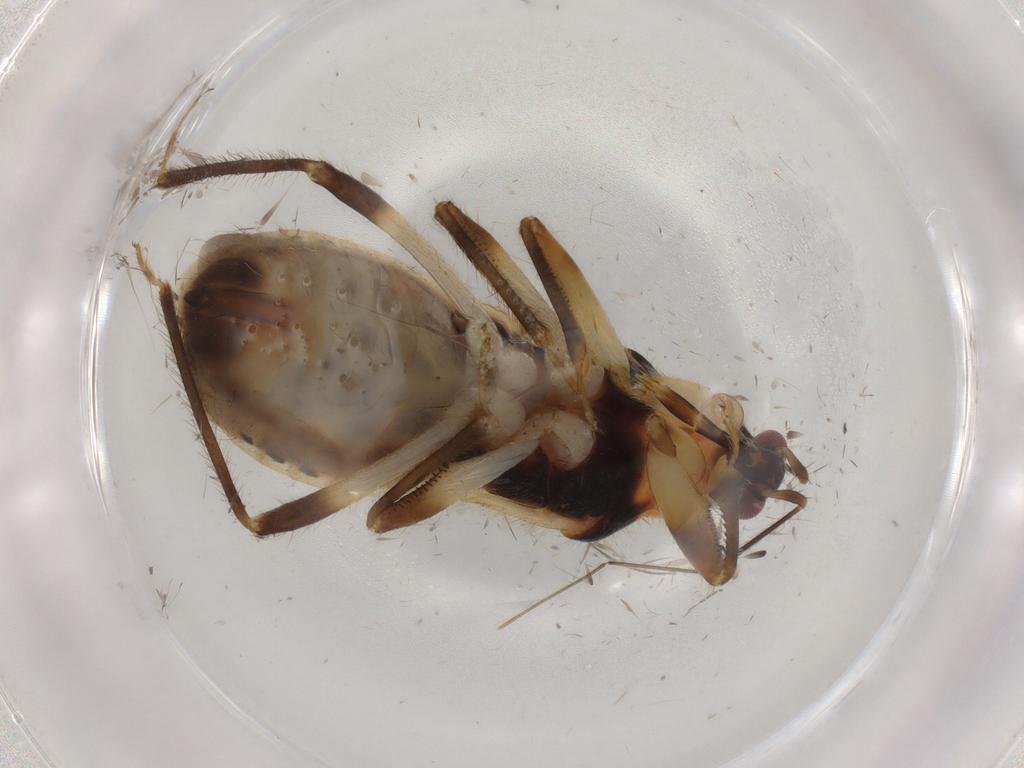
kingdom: Animalia
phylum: Arthropoda
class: Insecta
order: Hemiptera
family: Nabidae
